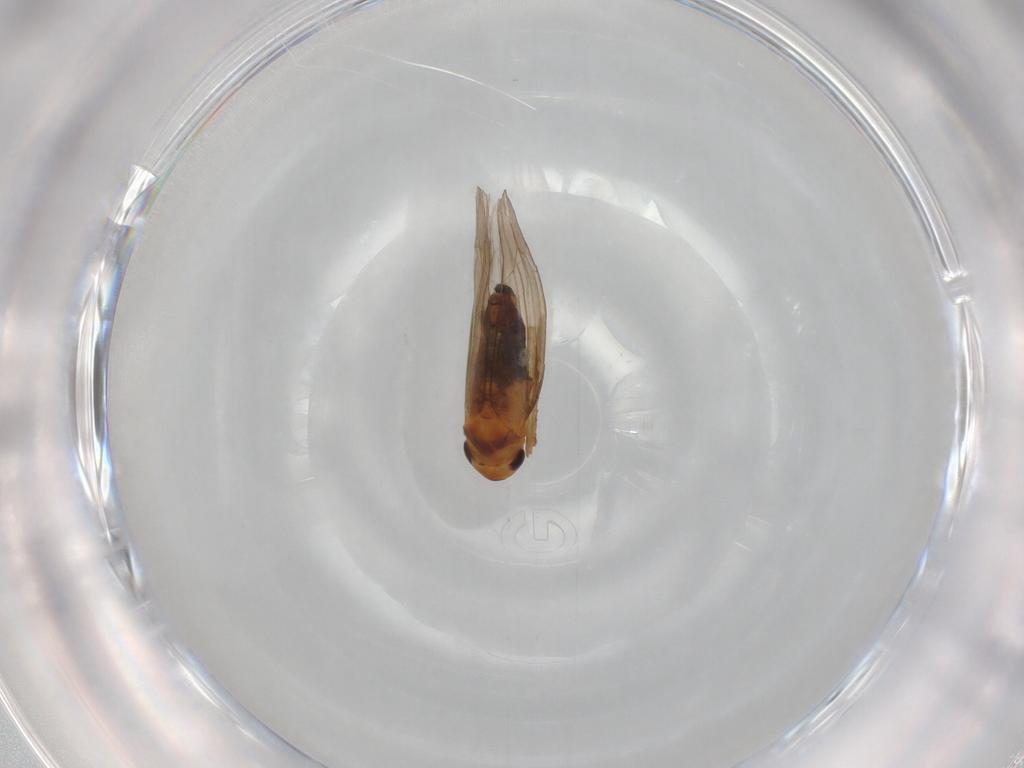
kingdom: Animalia
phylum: Arthropoda
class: Insecta
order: Hemiptera
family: Cicadellidae
